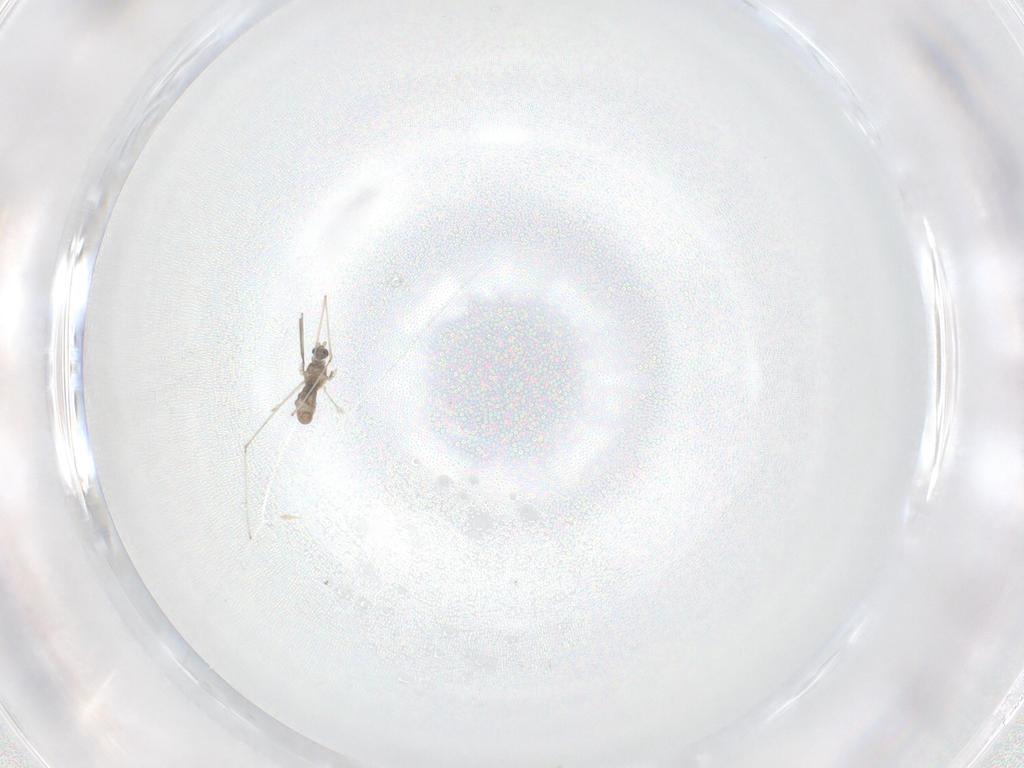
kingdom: Animalia
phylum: Arthropoda
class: Insecta
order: Diptera
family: Cecidomyiidae
